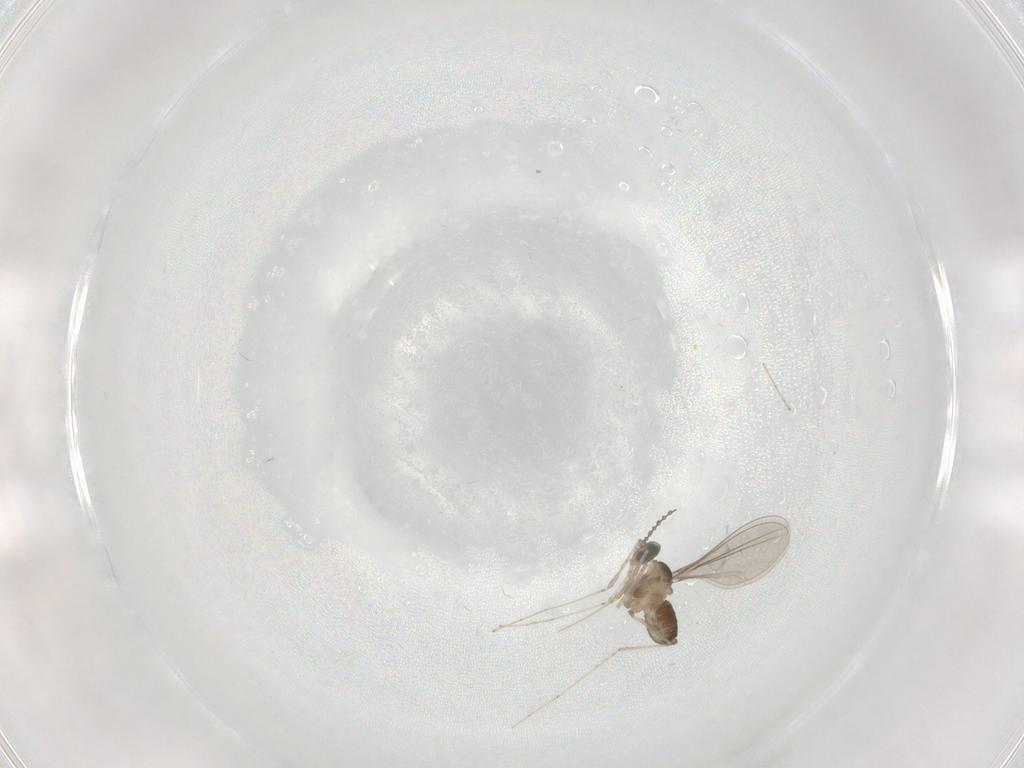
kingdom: Animalia
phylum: Arthropoda
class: Insecta
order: Diptera
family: Cecidomyiidae
